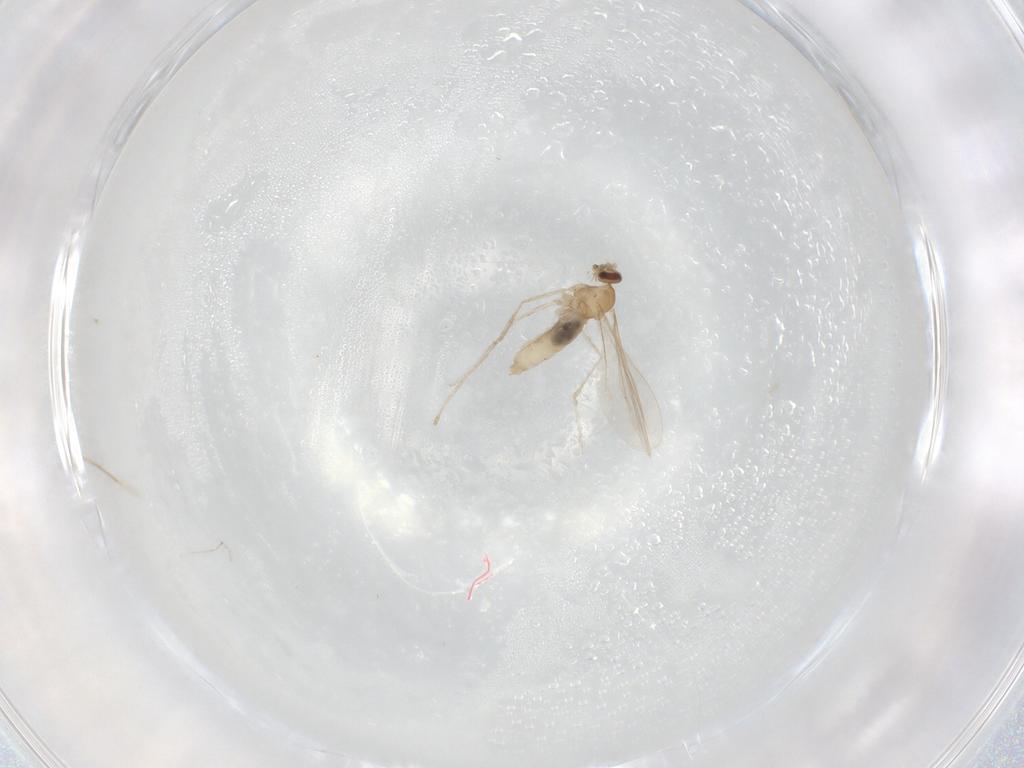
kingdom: Animalia
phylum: Arthropoda
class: Insecta
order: Diptera
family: Cecidomyiidae
